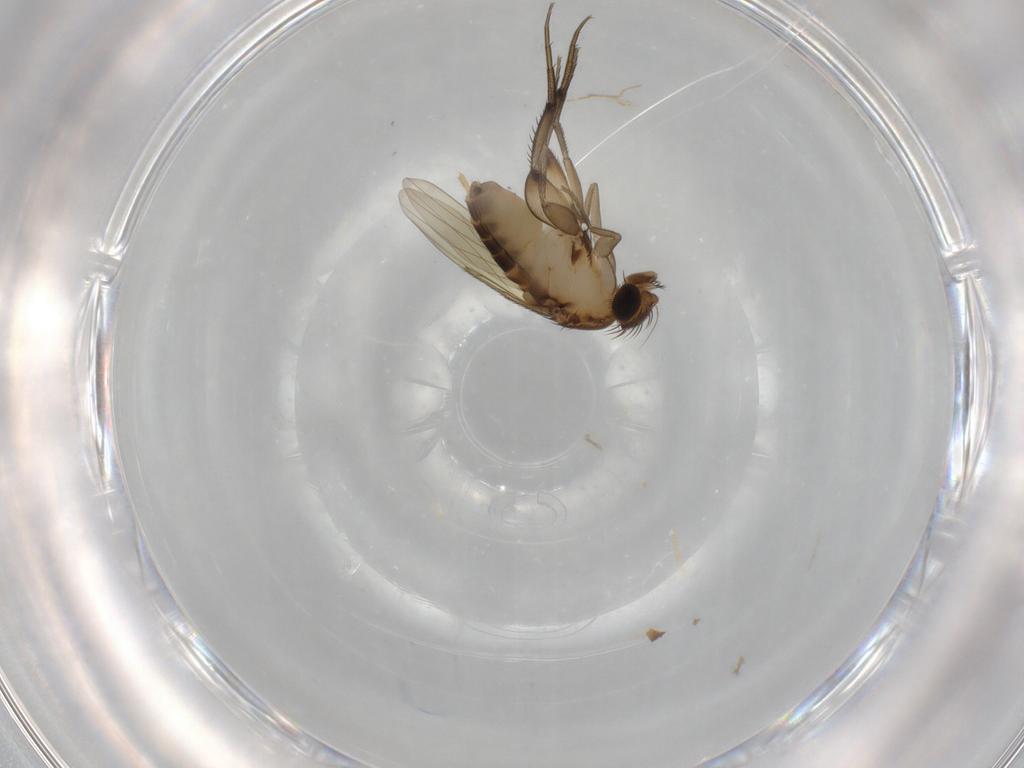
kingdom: Animalia
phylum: Arthropoda
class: Insecta
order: Diptera
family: Phoridae
